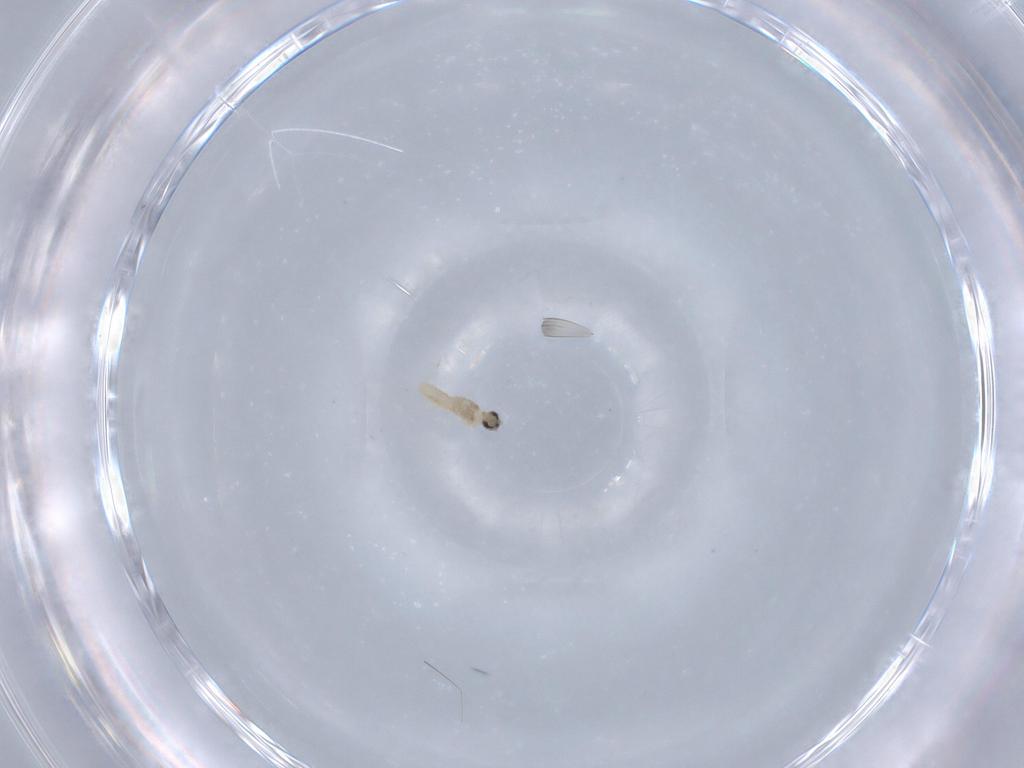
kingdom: Animalia
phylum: Arthropoda
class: Insecta
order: Diptera
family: Cecidomyiidae
